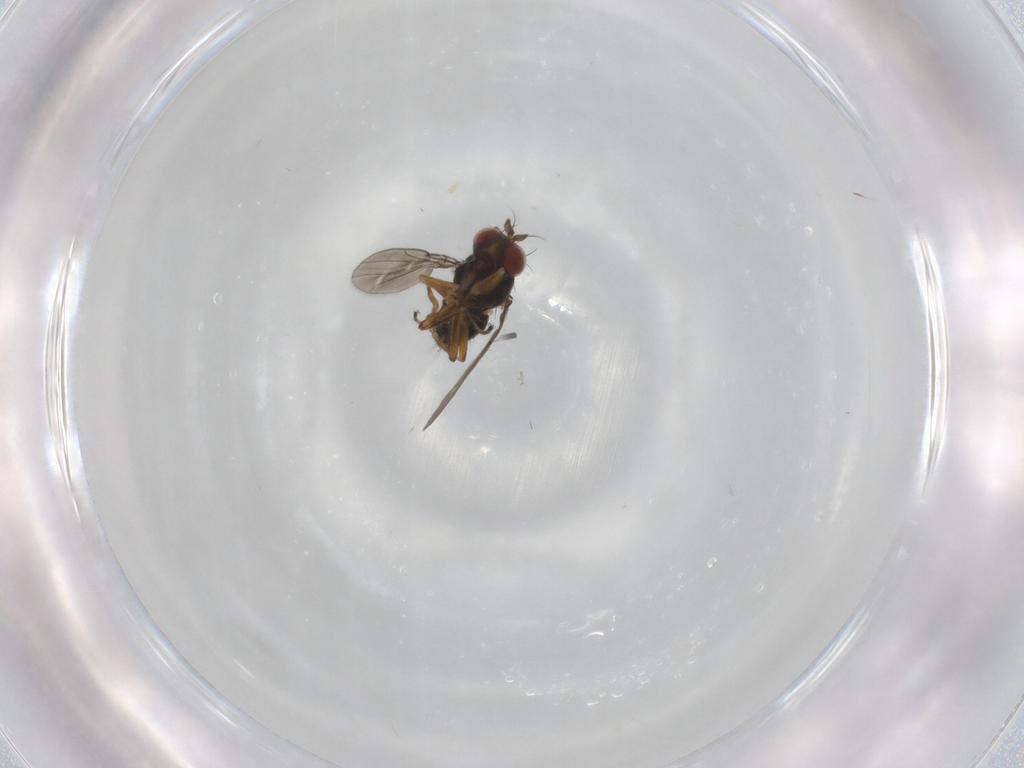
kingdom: Animalia
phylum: Arthropoda
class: Insecta
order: Diptera
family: Ephydridae
